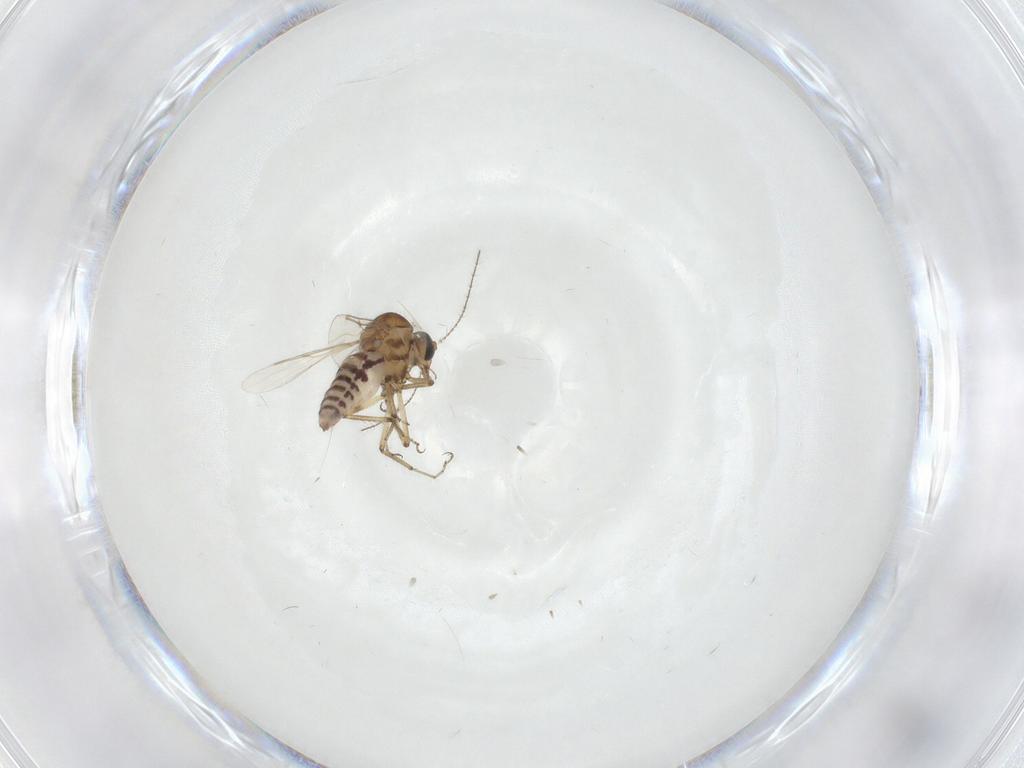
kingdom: Animalia
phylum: Arthropoda
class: Insecta
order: Diptera
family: Ceratopogonidae
